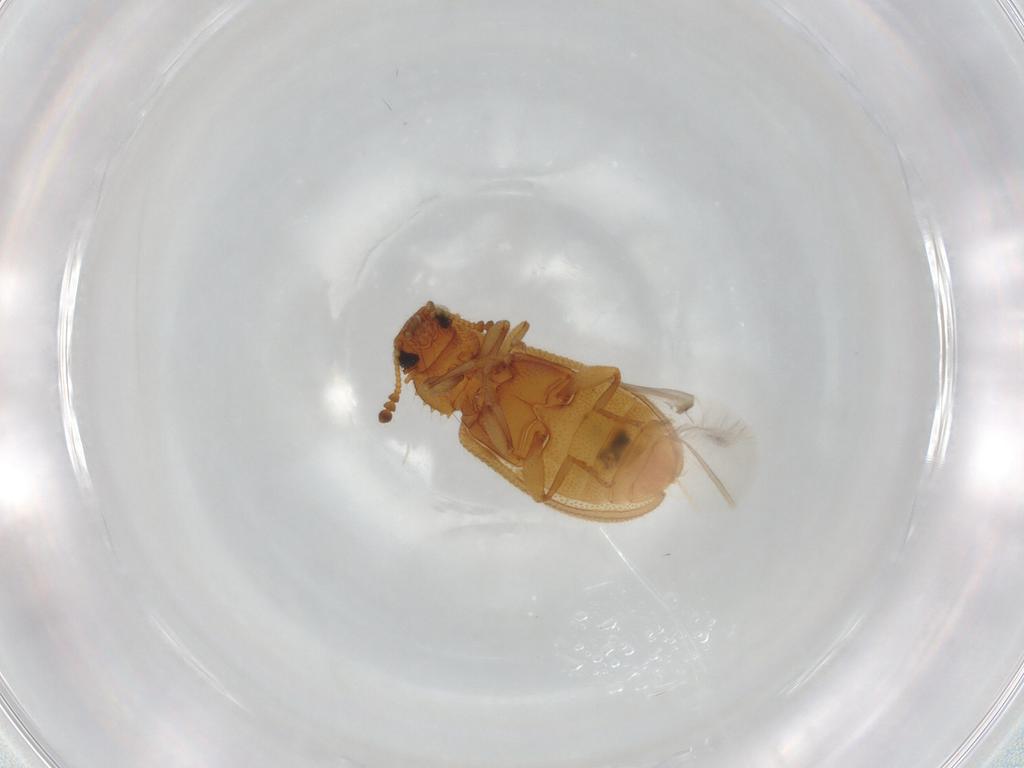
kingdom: Animalia
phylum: Arthropoda
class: Insecta
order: Coleoptera
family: Tenebrionidae
